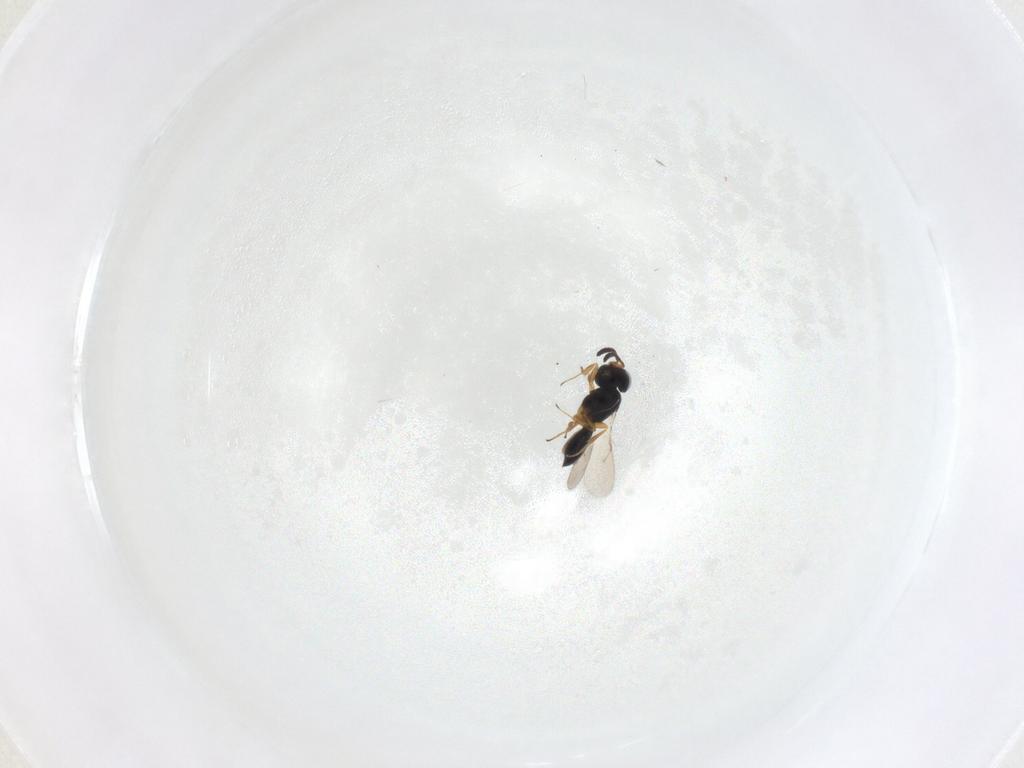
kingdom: Animalia
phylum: Arthropoda
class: Insecta
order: Hymenoptera
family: Scelionidae
